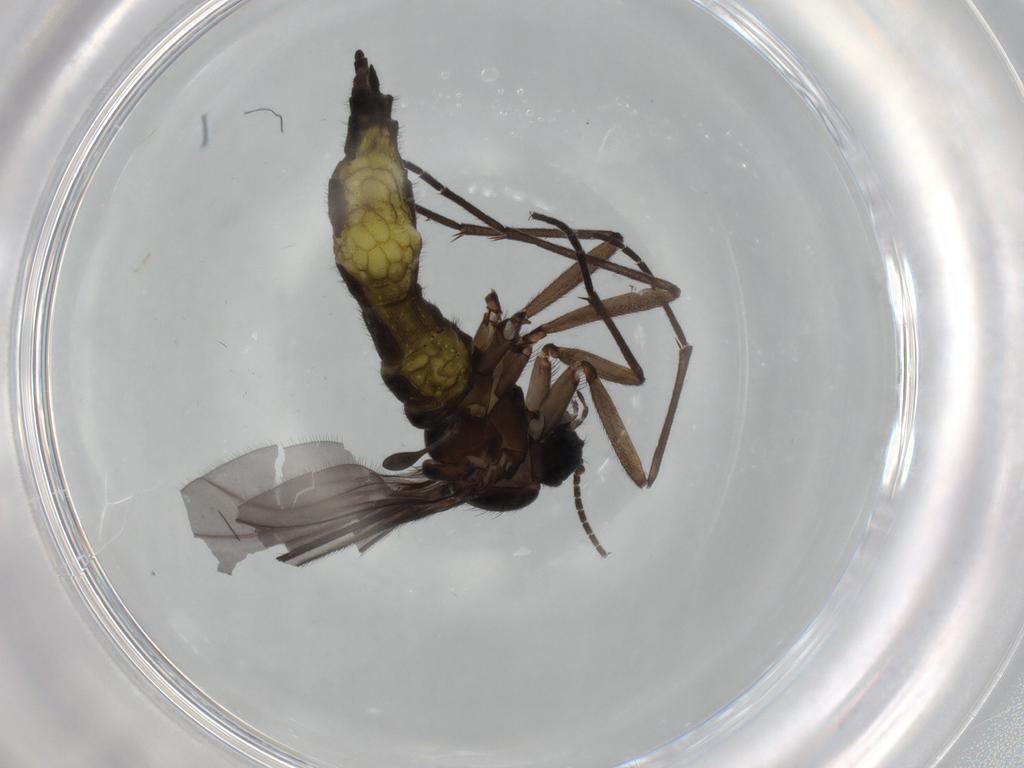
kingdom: Animalia
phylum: Arthropoda
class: Insecta
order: Diptera
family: Sciaridae
